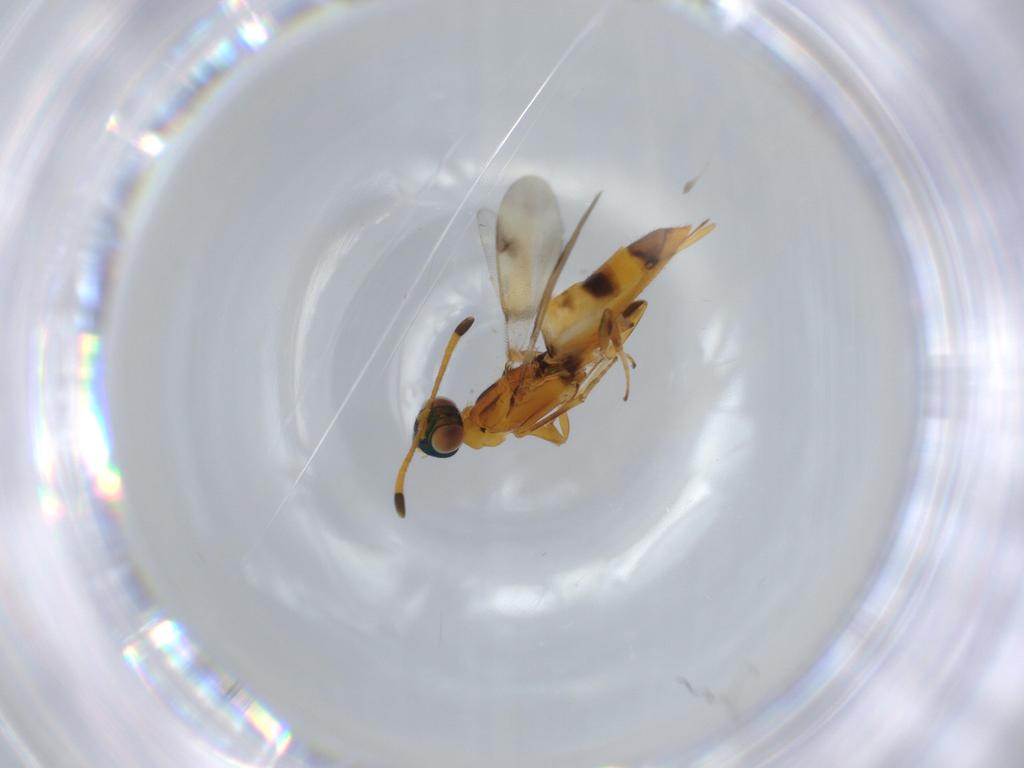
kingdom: Animalia
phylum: Arthropoda
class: Insecta
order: Hymenoptera
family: Eupelmidae
